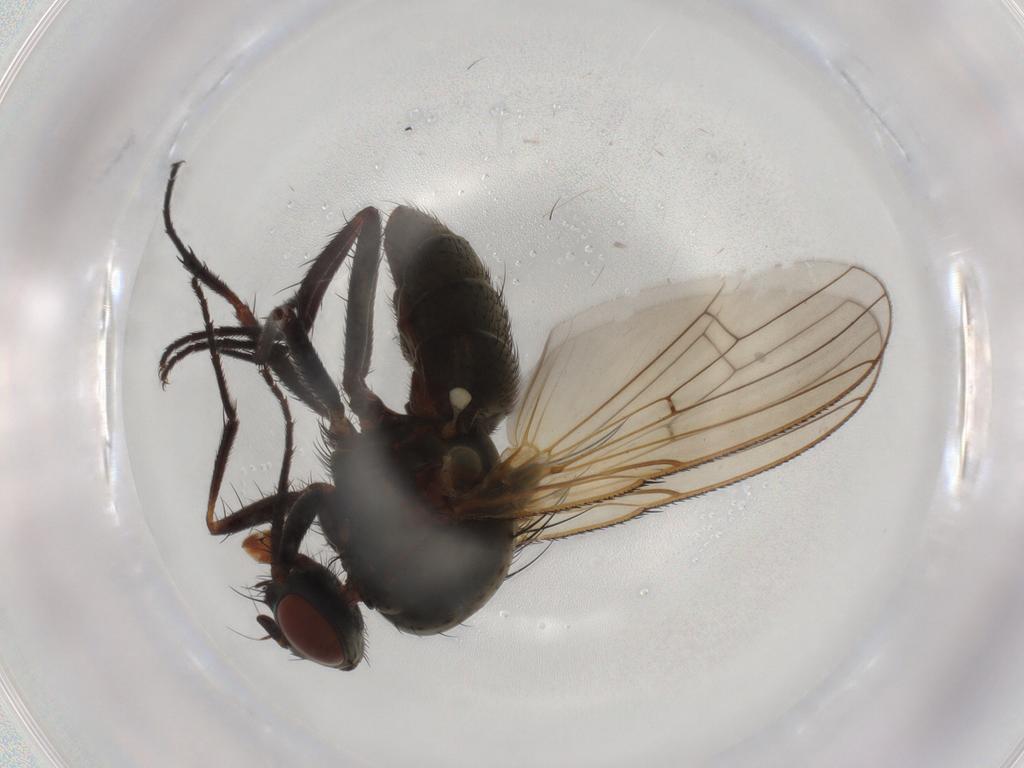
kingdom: Animalia
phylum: Arthropoda
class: Insecta
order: Diptera
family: Anthomyiidae
